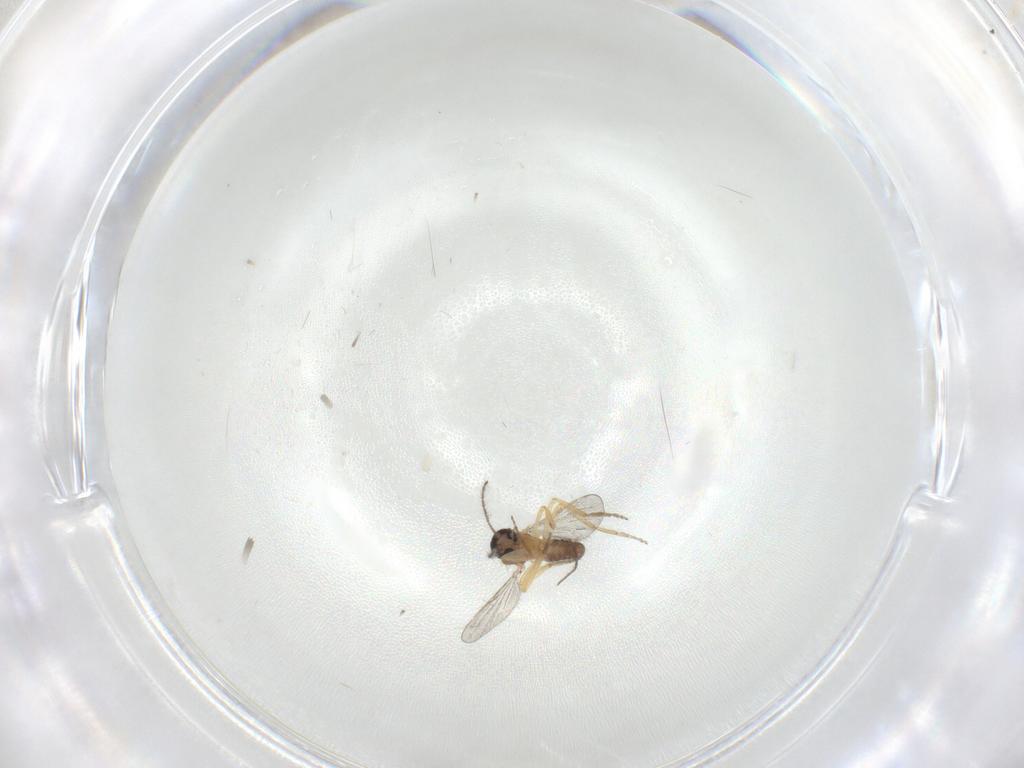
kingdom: Animalia
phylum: Arthropoda
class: Insecta
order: Diptera
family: Ceratopogonidae
